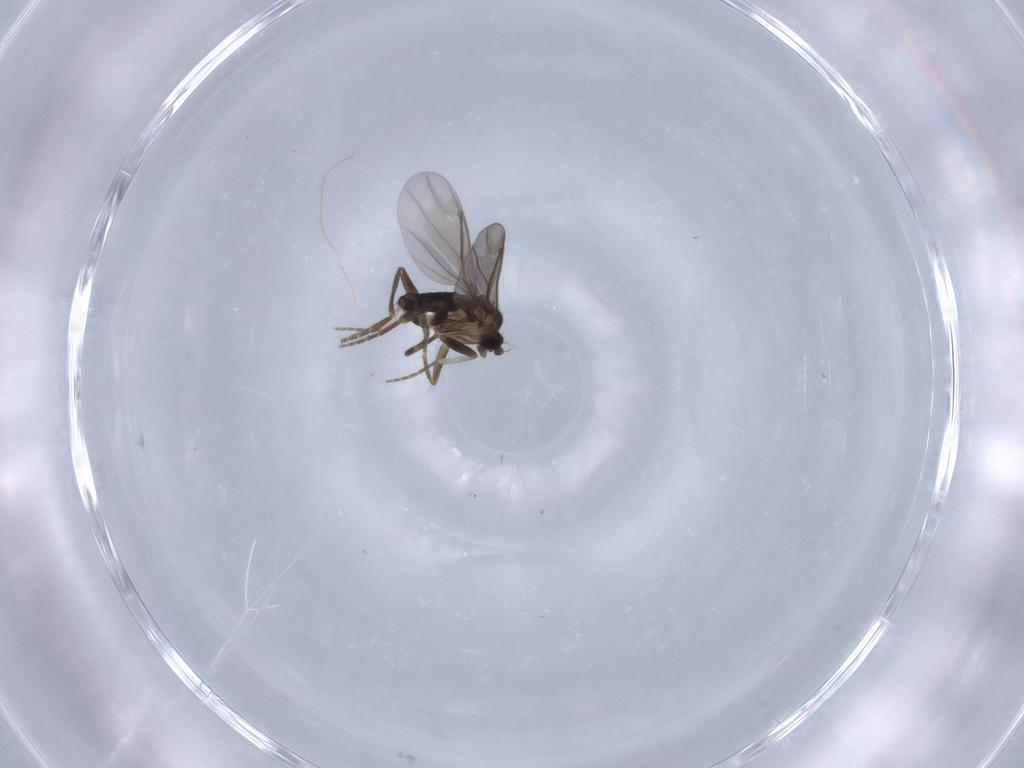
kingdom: Animalia
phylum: Arthropoda
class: Insecta
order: Diptera
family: Phoridae
